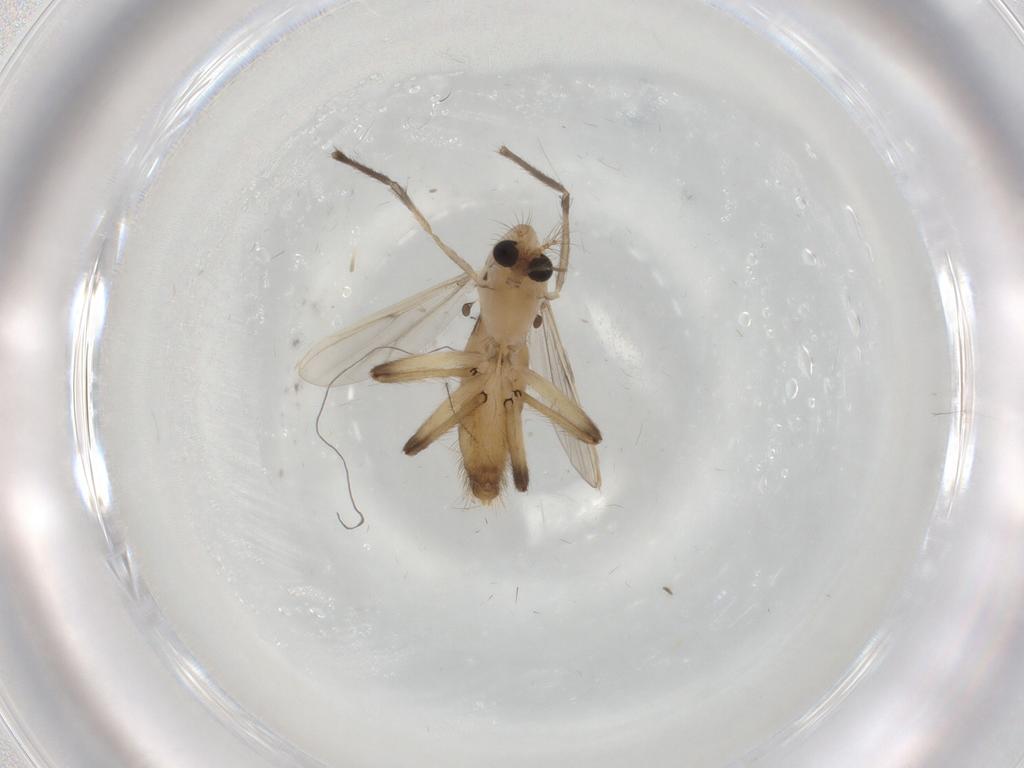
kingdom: Animalia
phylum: Arthropoda
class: Insecta
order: Diptera
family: Chironomidae
